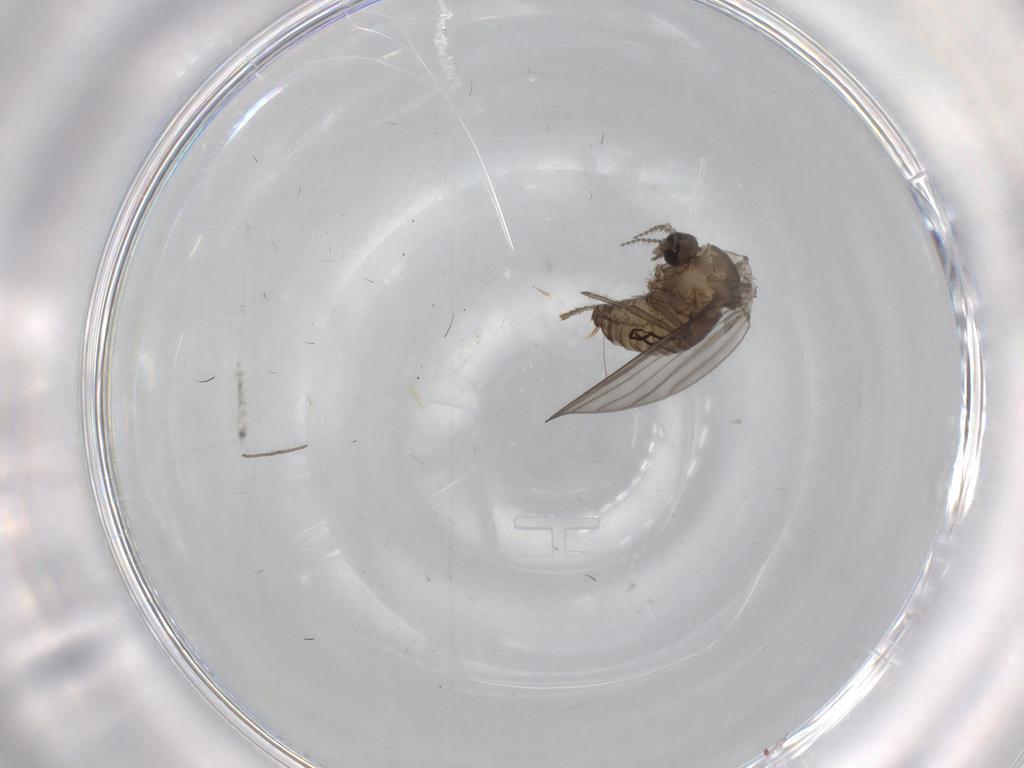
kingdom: Animalia
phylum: Arthropoda
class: Insecta
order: Diptera
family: Psychodidae
